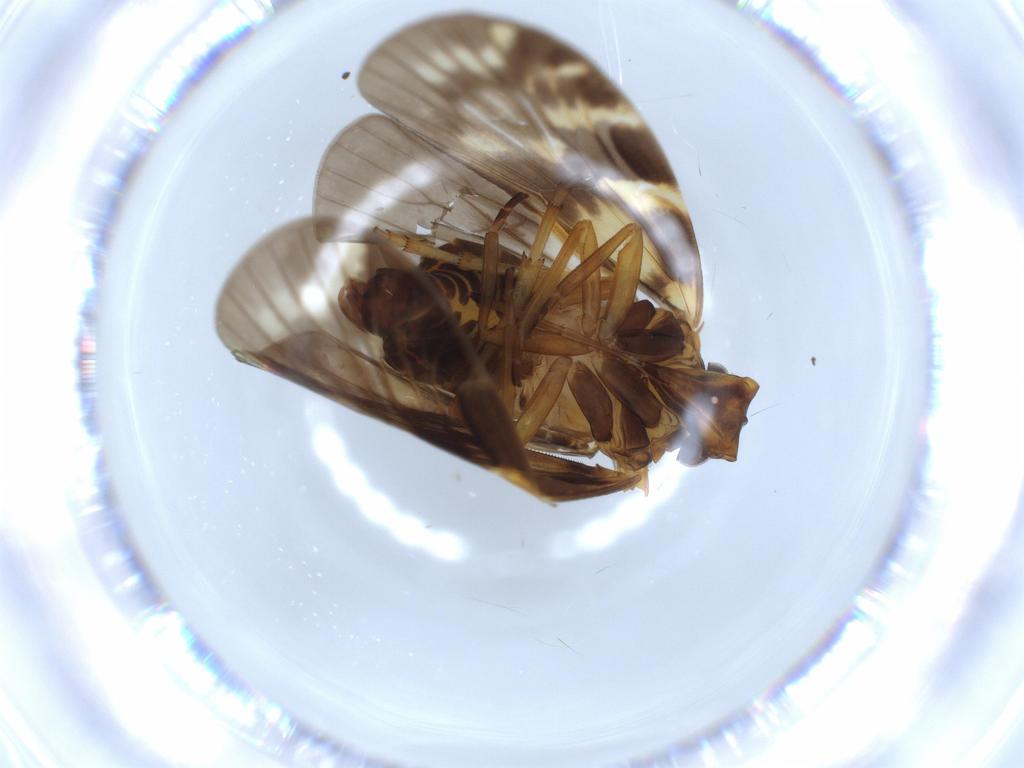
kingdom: Animalia
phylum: Arthropoda
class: Insecta
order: Hemiptera
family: Cixiidae
